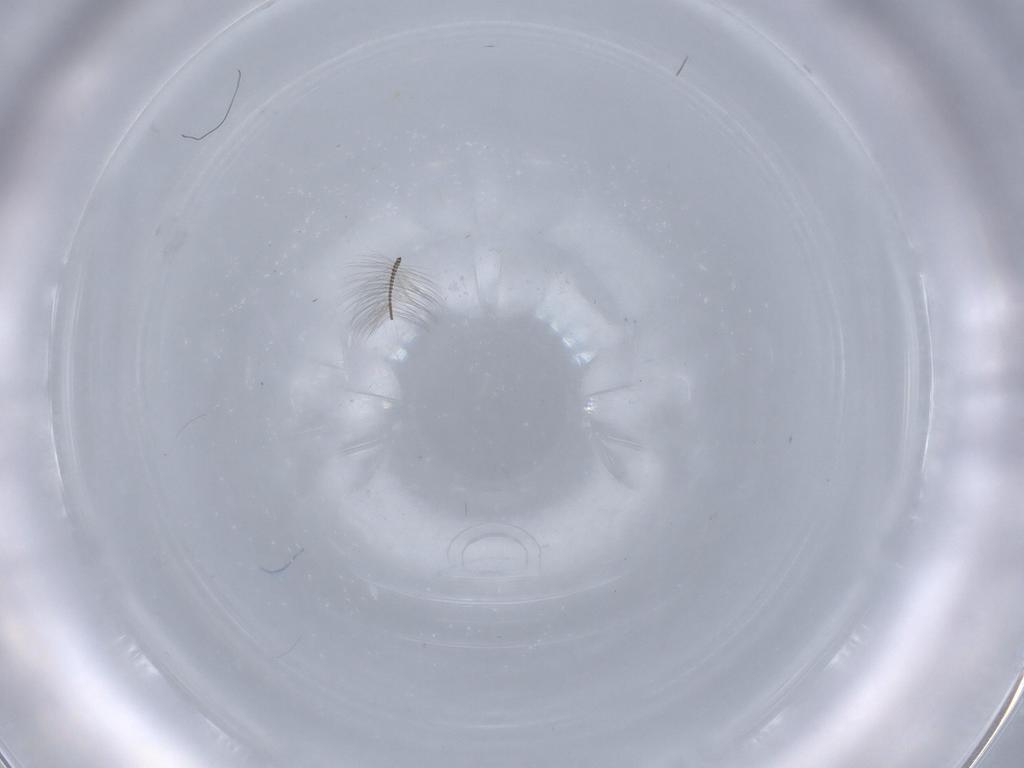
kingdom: Animalia
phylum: Arthropoda
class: Insecta
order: Diptera
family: Chironomidae
